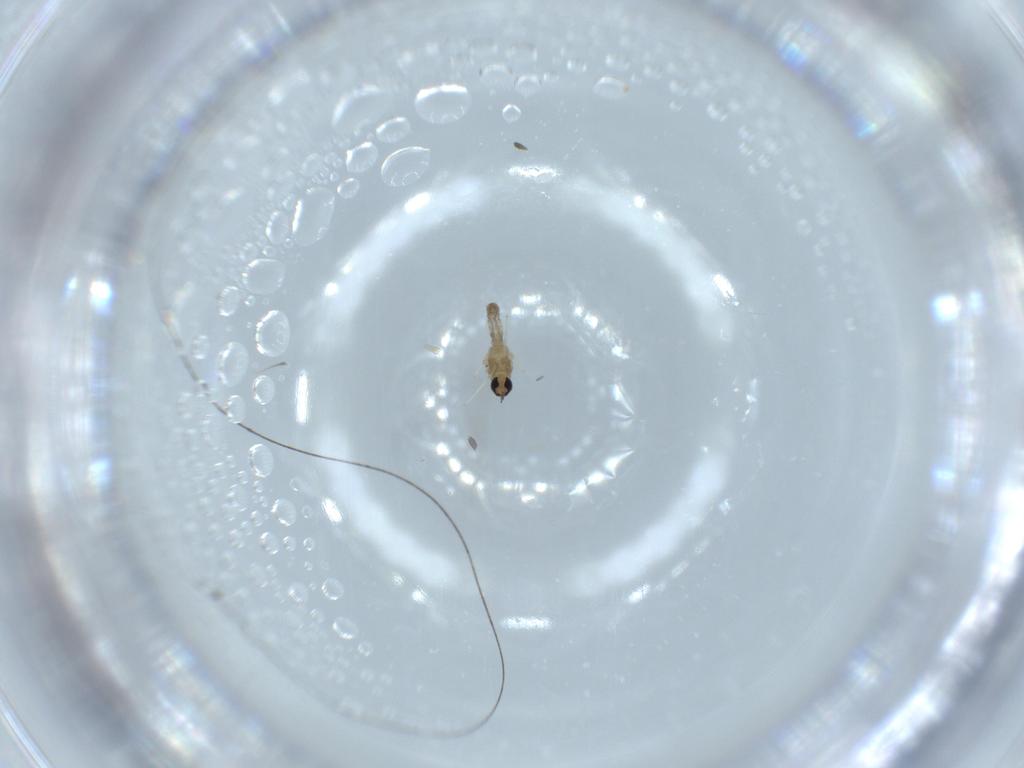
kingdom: Animalia
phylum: Arthropoda
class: Insecta
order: Diptera
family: Cecidomyiidae
